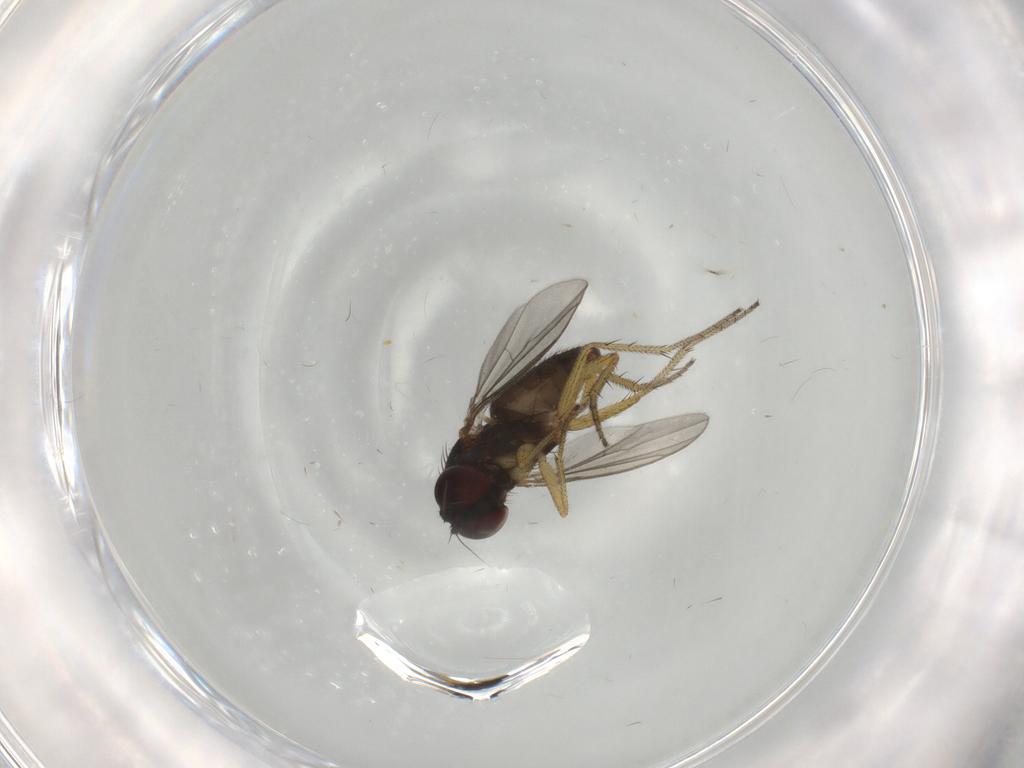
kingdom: Animalia
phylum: Arthropoda
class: Insecta
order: Diptera
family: Dolichopodidae
